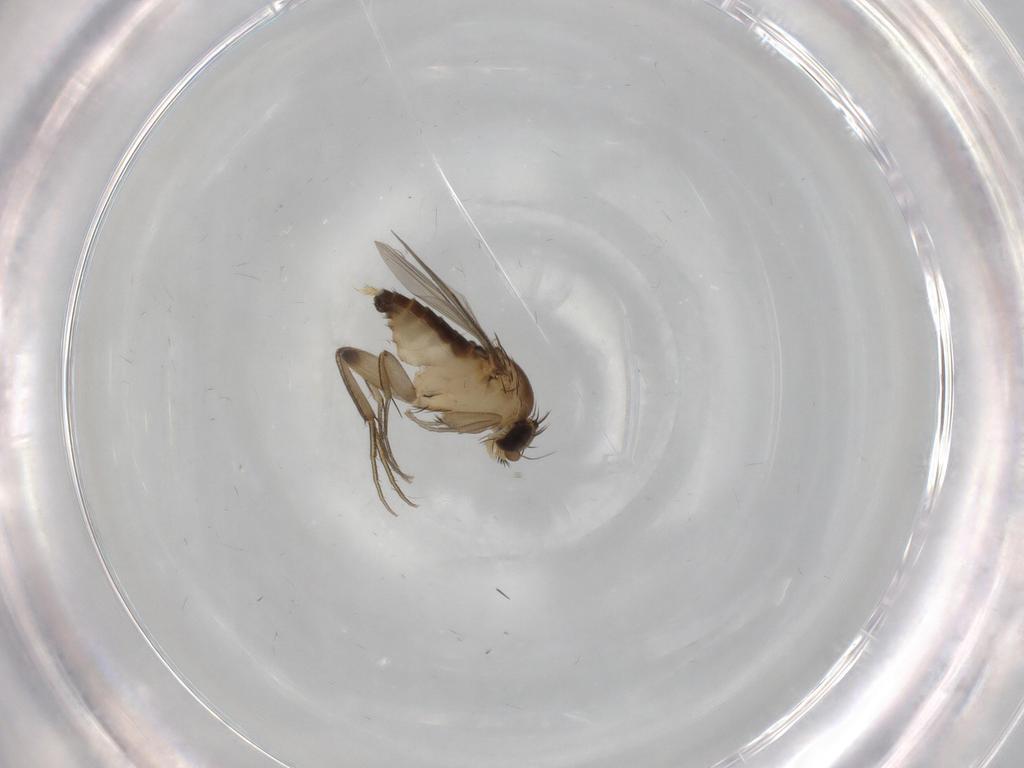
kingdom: Animalia
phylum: Arthropoda
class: Insecta
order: Diptera
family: Phoridae
